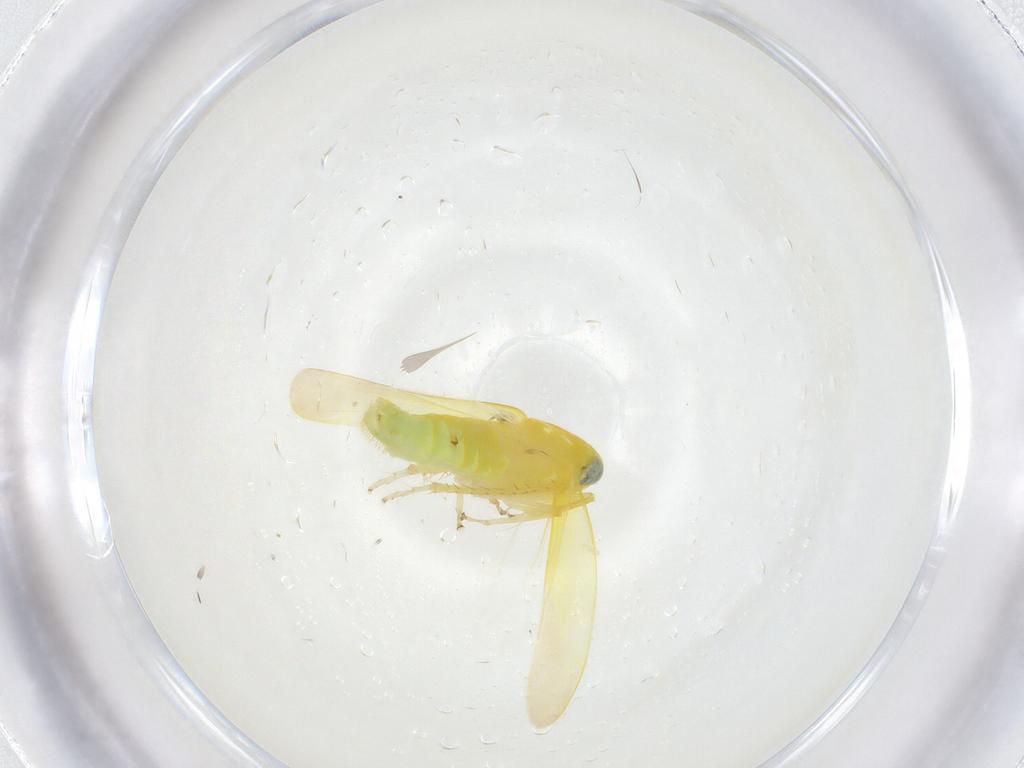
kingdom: Animalia
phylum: Arthropoda
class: Insecta
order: Hemiptera
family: Cicadellidae
